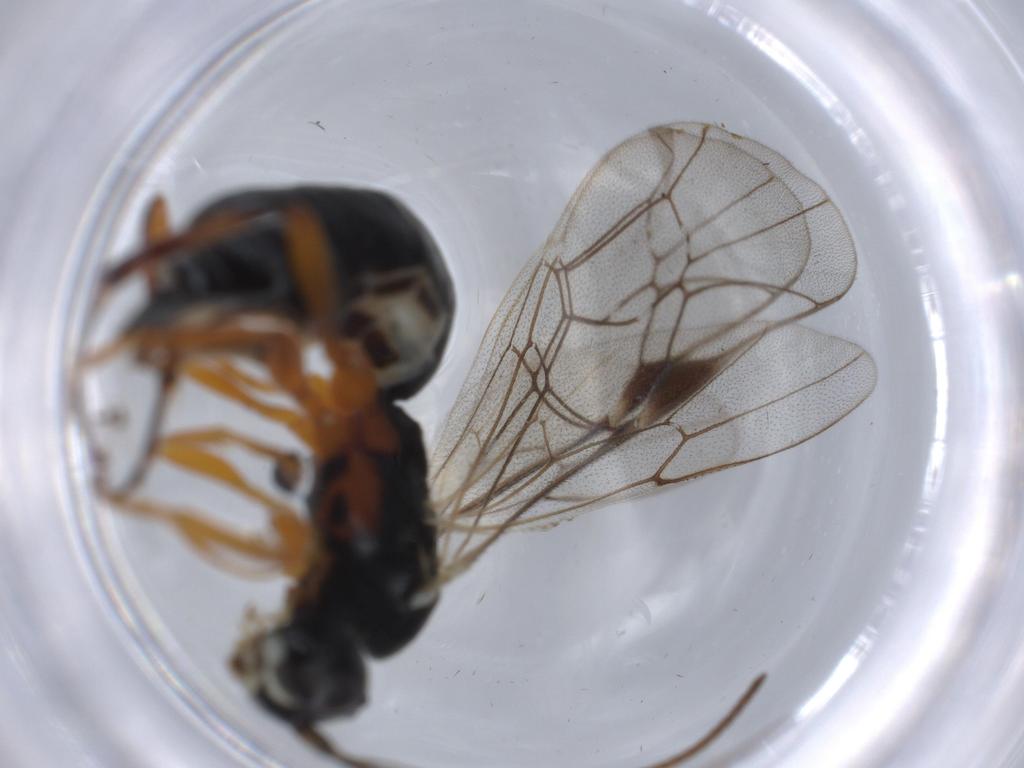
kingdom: Animalia
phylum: Arthropoda
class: Insecta
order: Hymenoptera
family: Ichneumonidae
